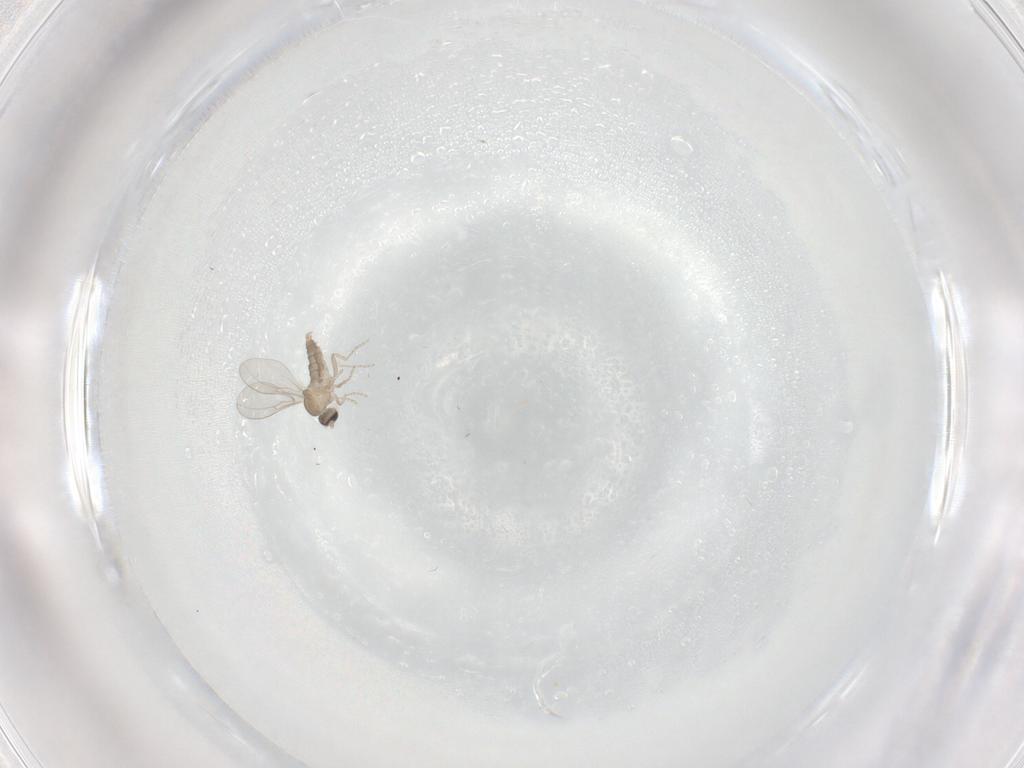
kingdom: Animalia
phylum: Arthropoda
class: Insecta
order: Diptera
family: Cecidomyiidae
